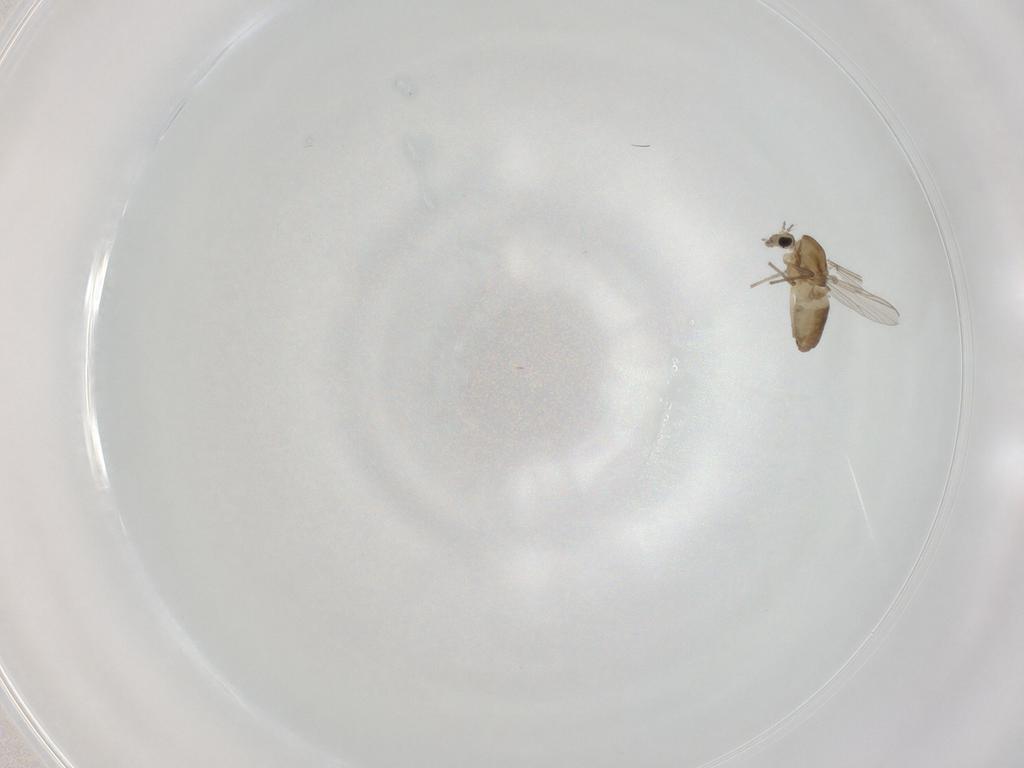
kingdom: Animalia
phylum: Arthropoda
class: Insecta
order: Diptera
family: Chironomidae
